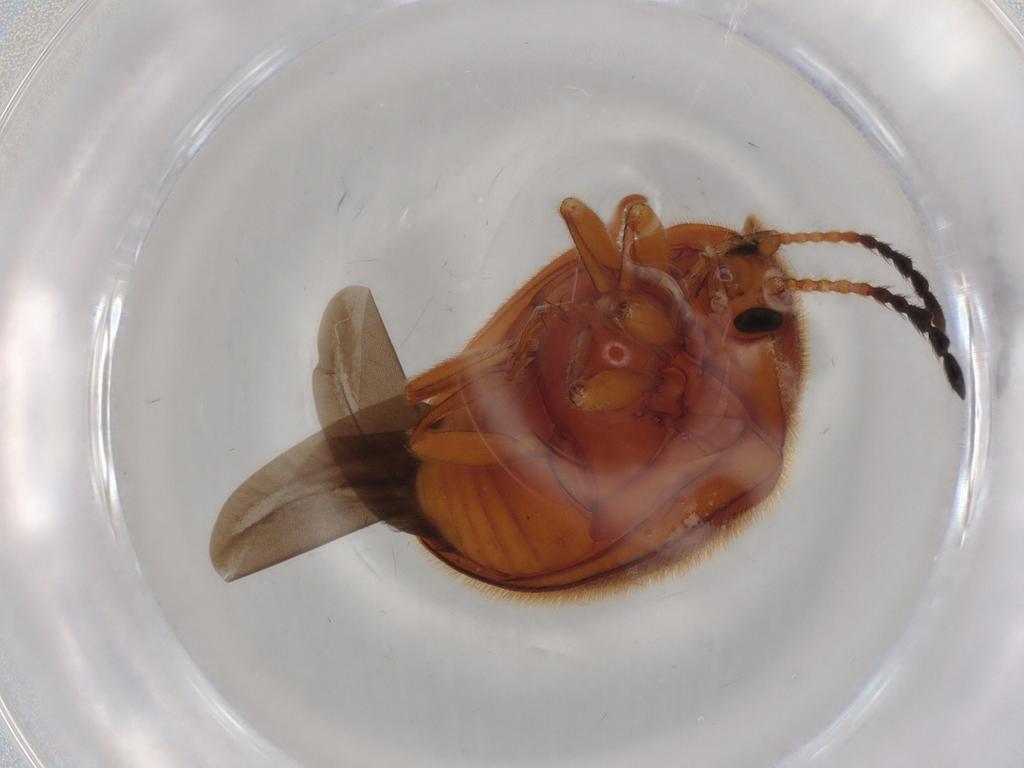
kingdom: Animalia
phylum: Arthropoda
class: Insecta
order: Coleoptera
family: Endomychidae
